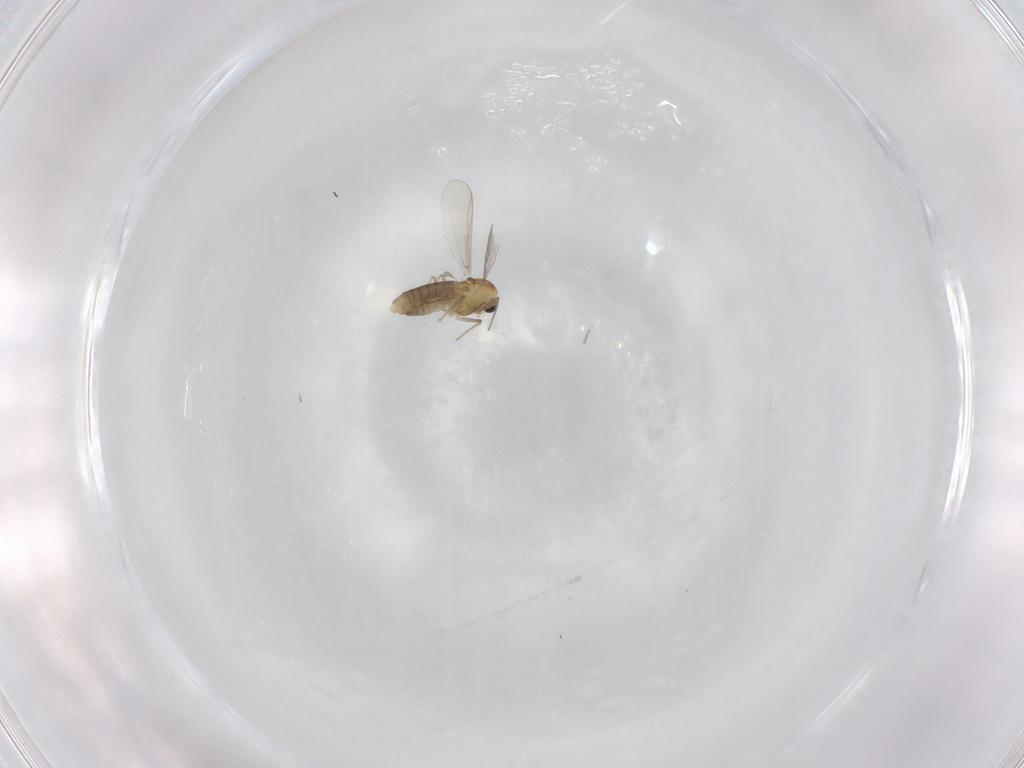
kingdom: Animalia
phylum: Arthropoda
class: Insecta
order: Diptera
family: Chironomidae
